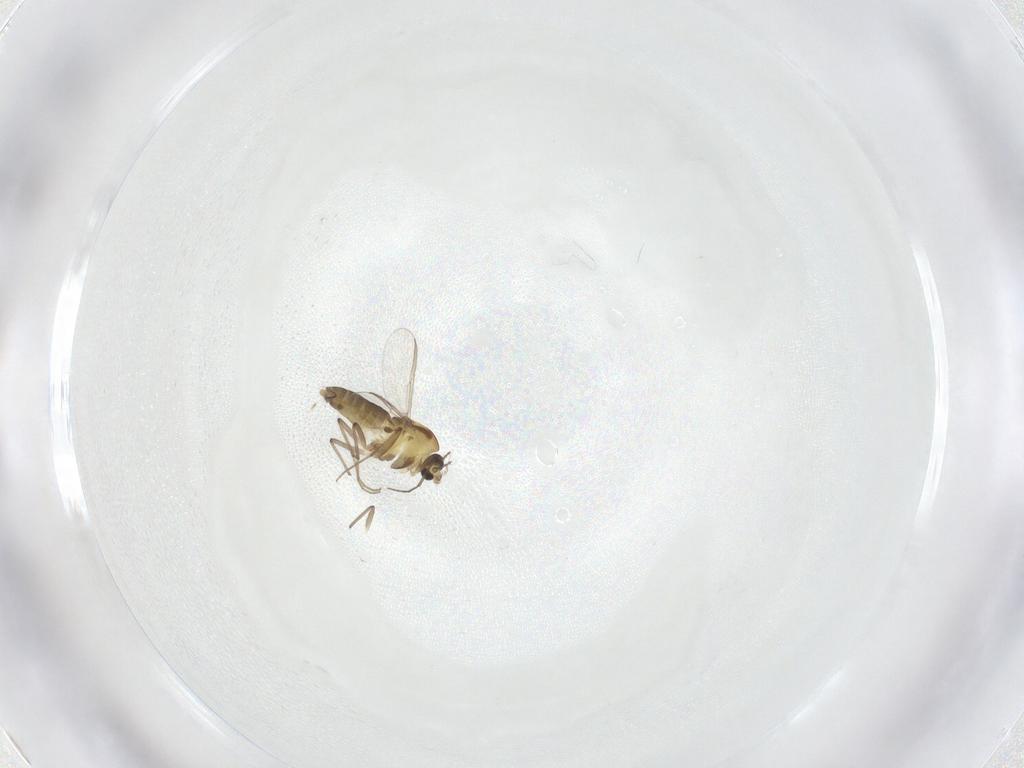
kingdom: Animalia
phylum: Arthropoda
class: Insecta
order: Diptera
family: Chironomidae
